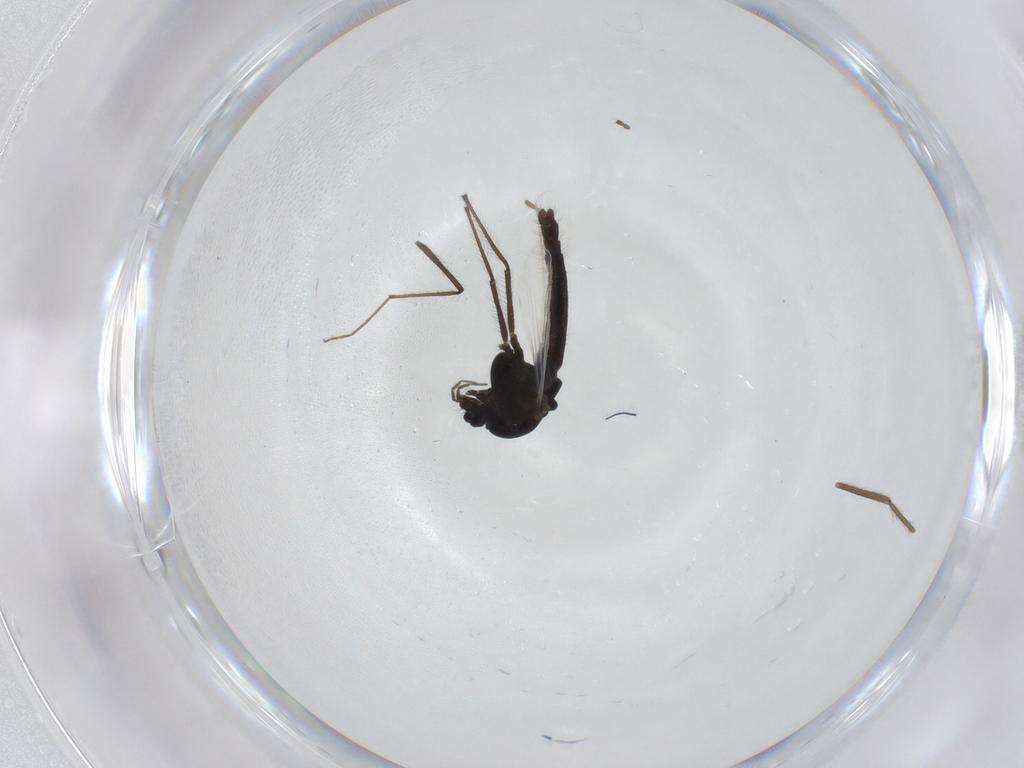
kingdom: Animalia
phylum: Arthropoda
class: Insecta
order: Diptera
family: Cecidomyiidae
